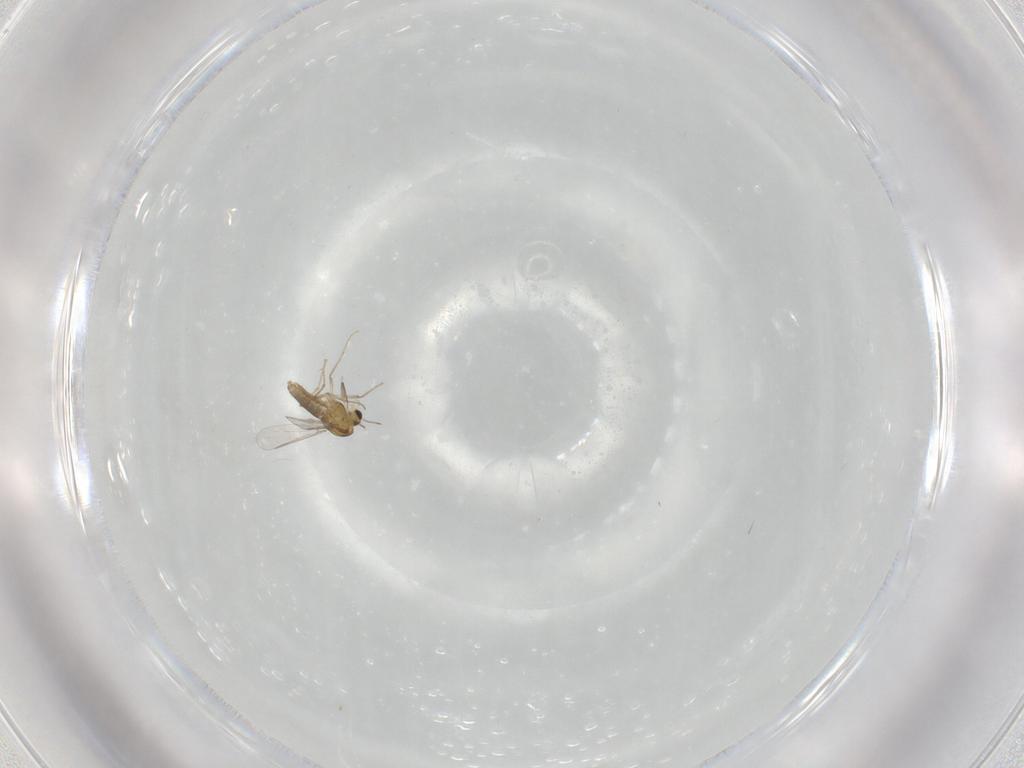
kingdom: Animalia
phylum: Arthropoda
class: Insecta
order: Diptera
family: Chironomidae
